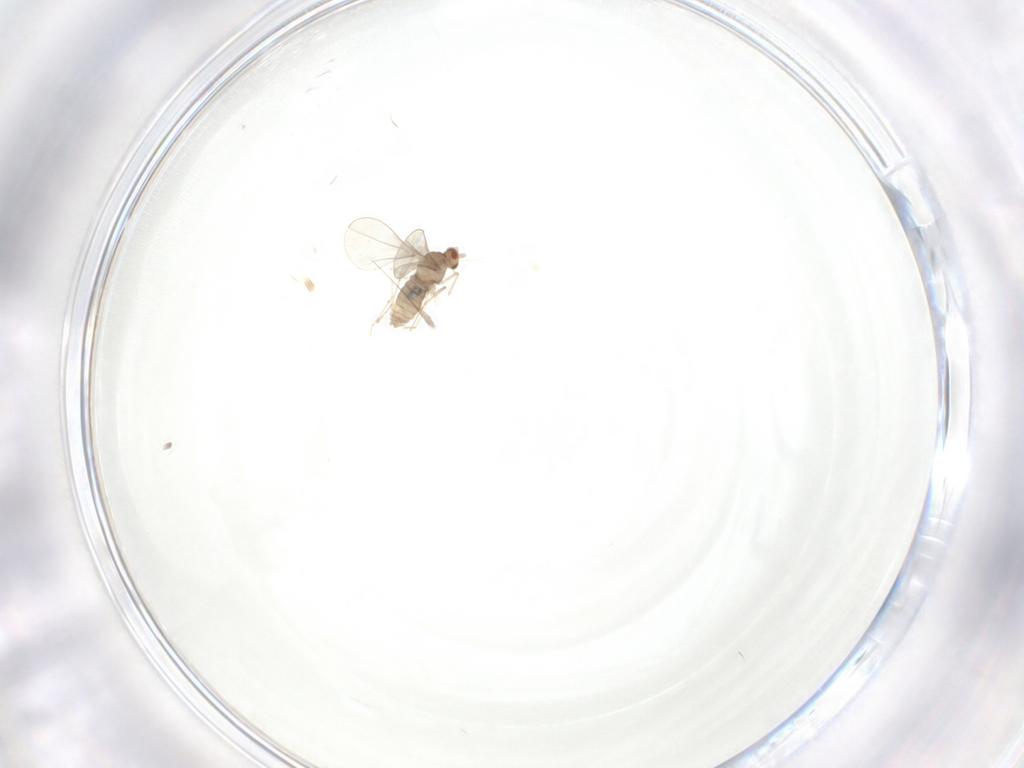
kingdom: Animalia
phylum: Arthropoda
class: Insecta
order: Diptera
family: Cecidomyiidae
